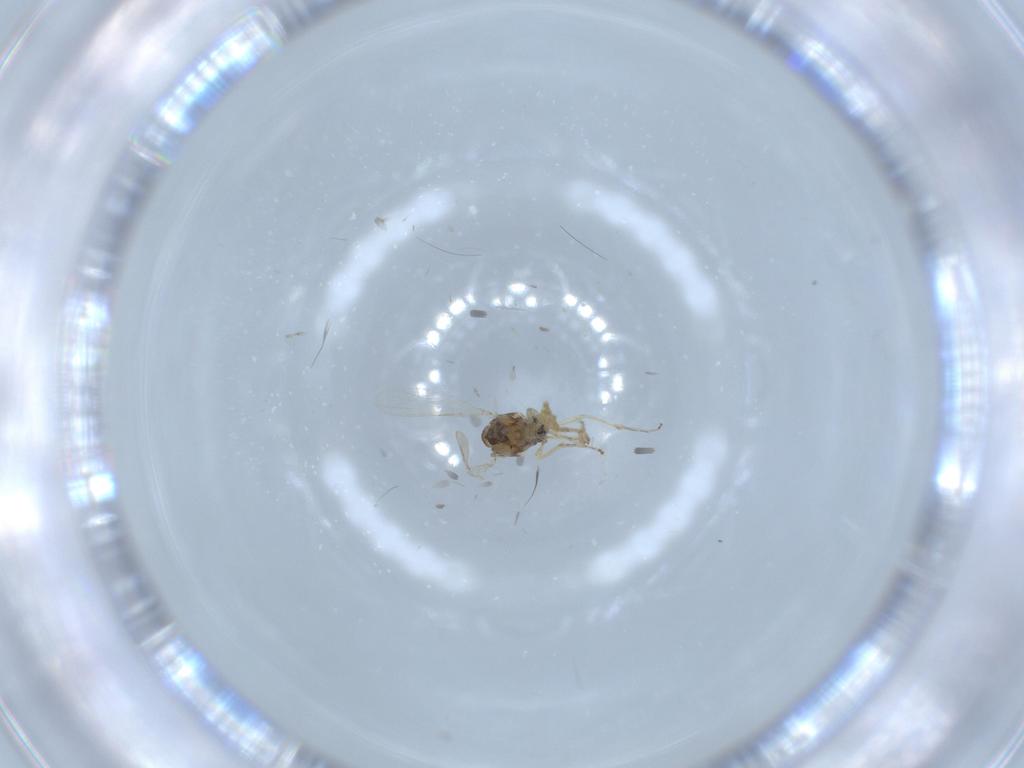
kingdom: Animalia
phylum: Arthropoda
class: Insecta
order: Diptera
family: Ceratopogonidae
